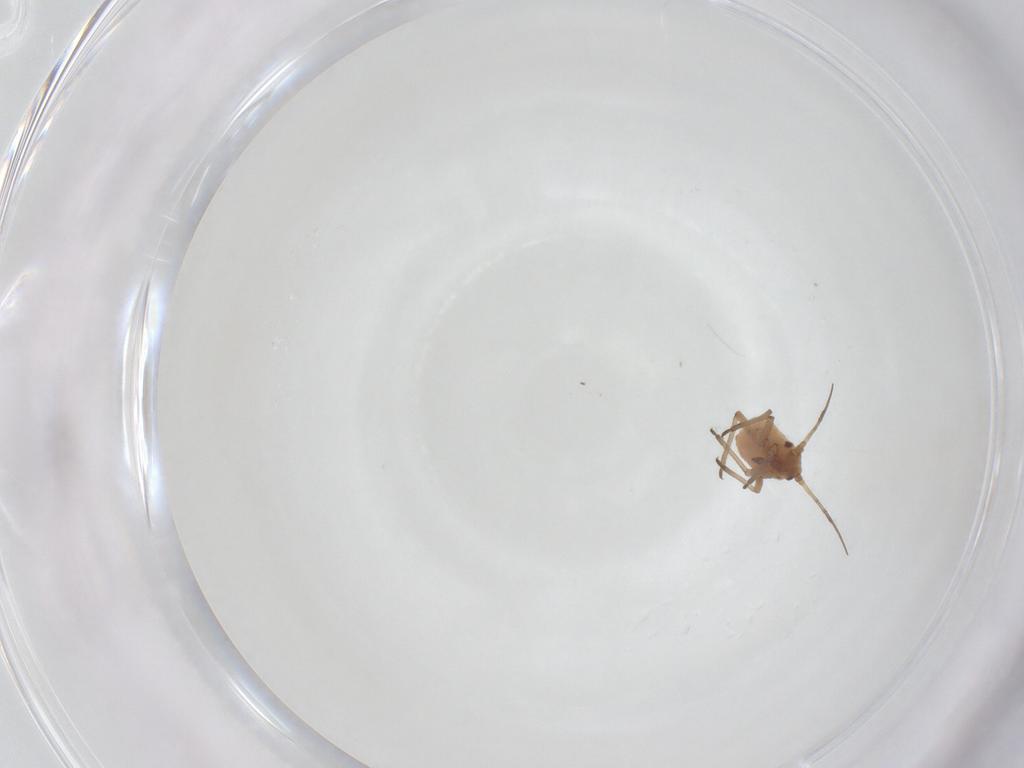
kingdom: Animalia
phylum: Arthropoda
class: Insecta
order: Hemiptera
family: Aphididae
